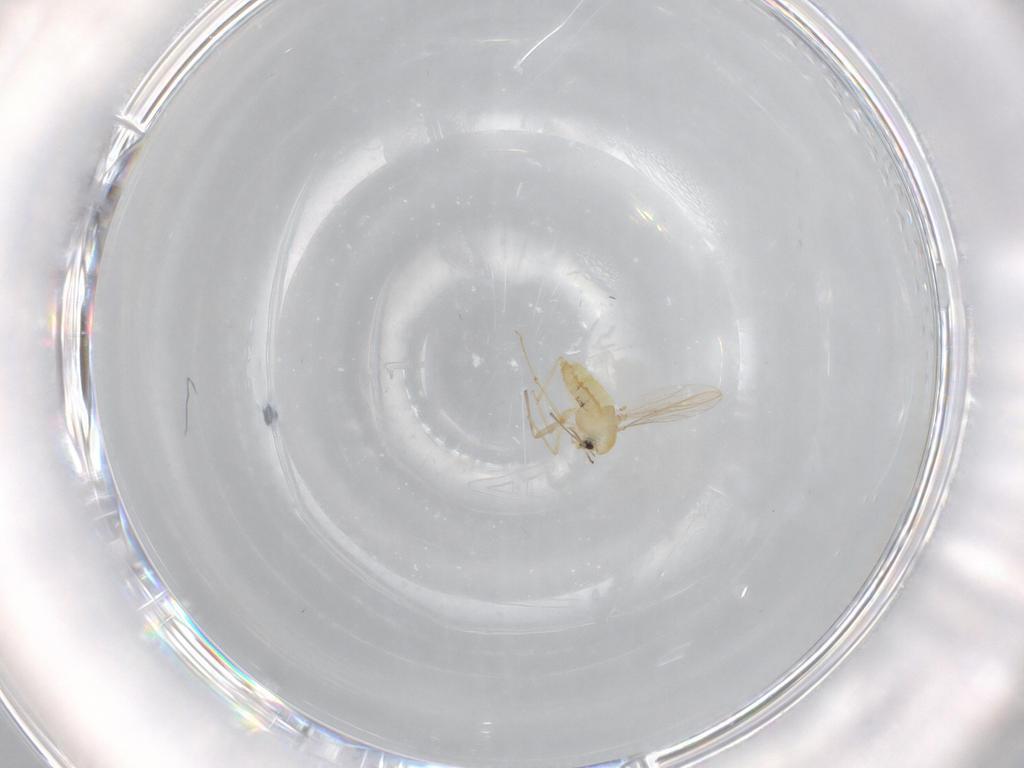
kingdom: Animalia
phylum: Arthropoda
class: Insecta
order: Diptera
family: Chironomidae
